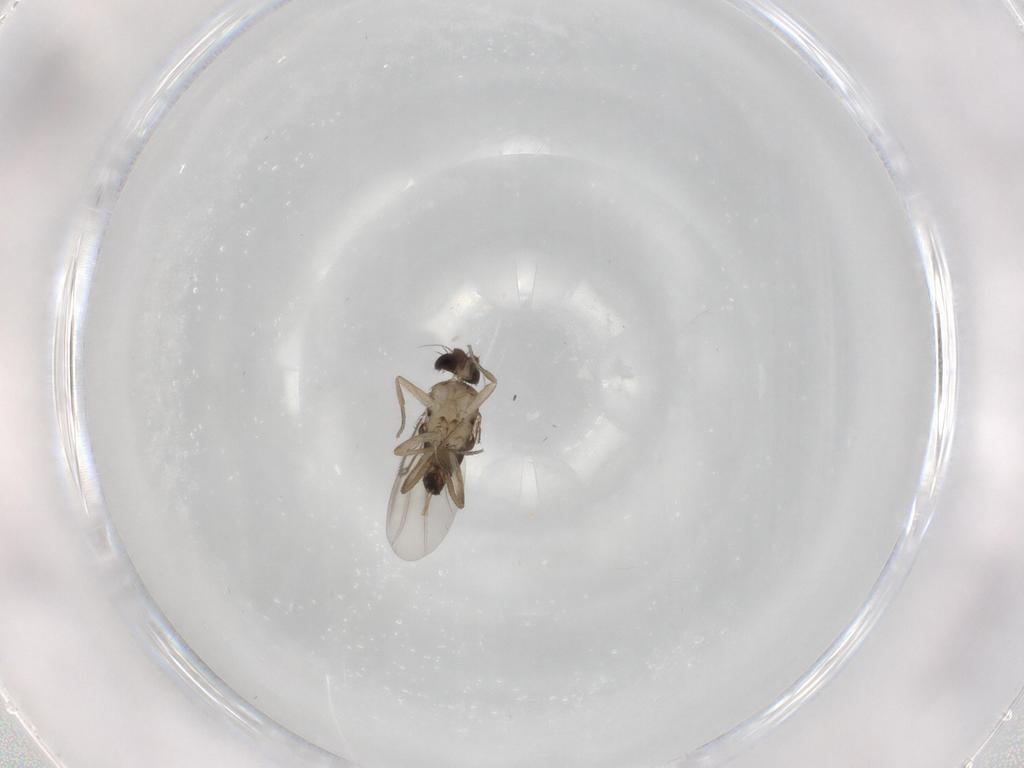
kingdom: Animalia
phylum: Arthropoda
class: Insecta
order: Diptera
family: Phoridae
